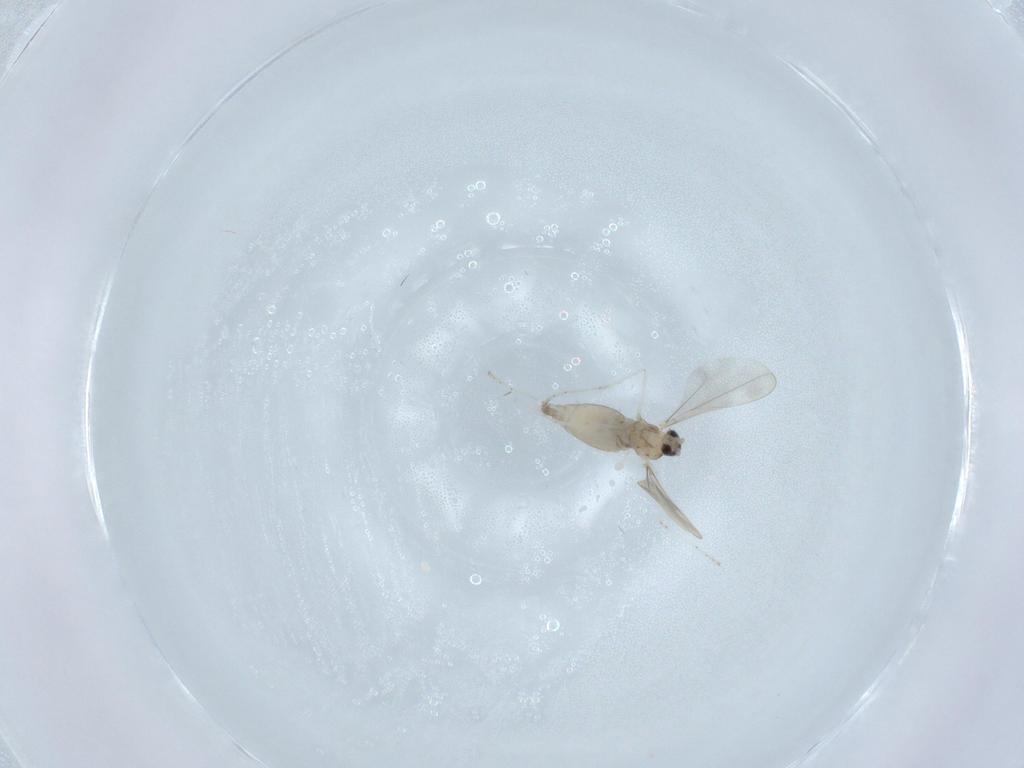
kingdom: Animalia
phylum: Arthropoda
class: Insecta
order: Diptera
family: Cecidomyiidae
